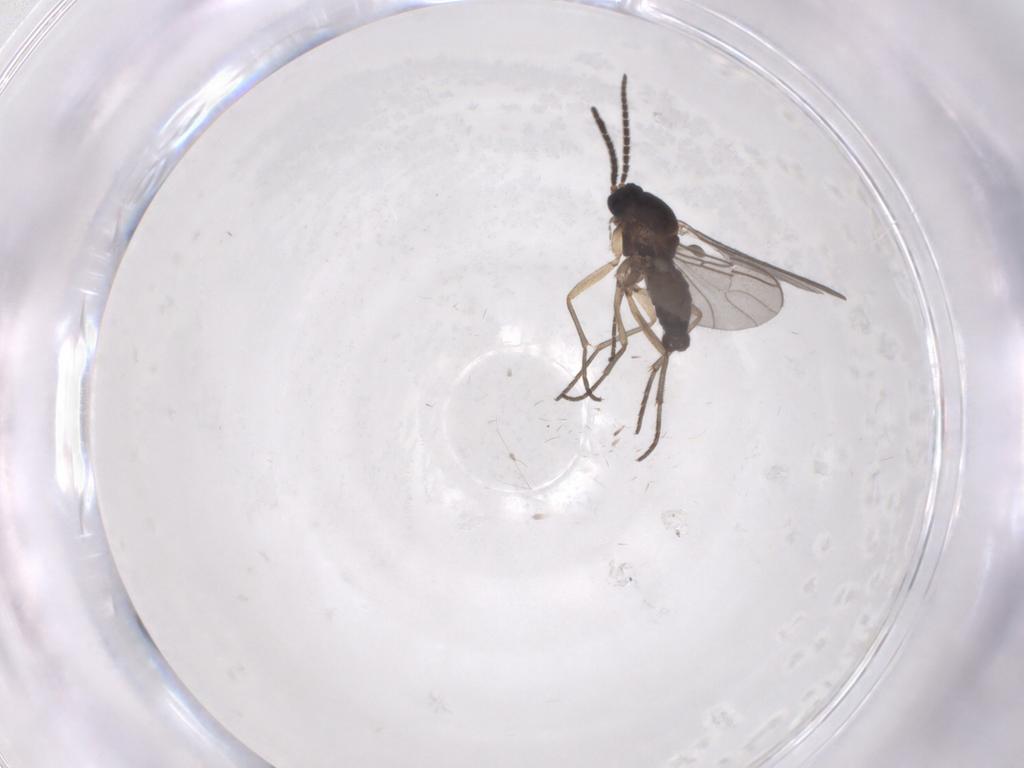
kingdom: Animalia
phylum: Arthropoda
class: Insecta
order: Diptera
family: Sciaridae
